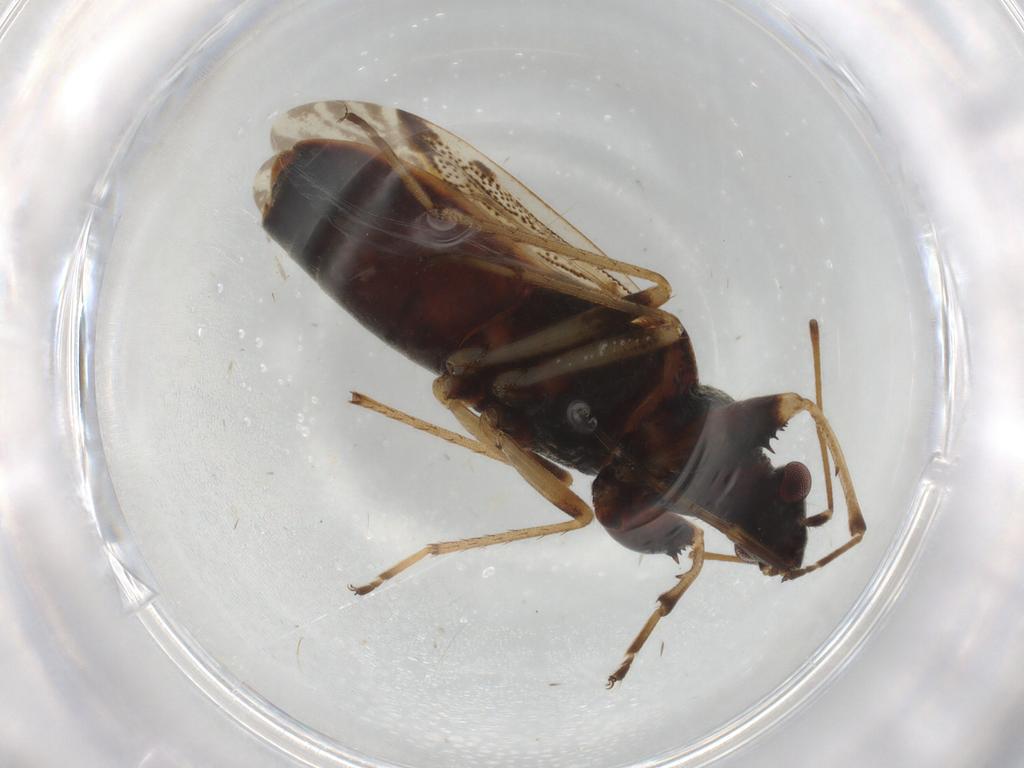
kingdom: Animalia
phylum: Arthropoda
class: Insecta
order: Hemiptera
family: Rhyparochromidae
